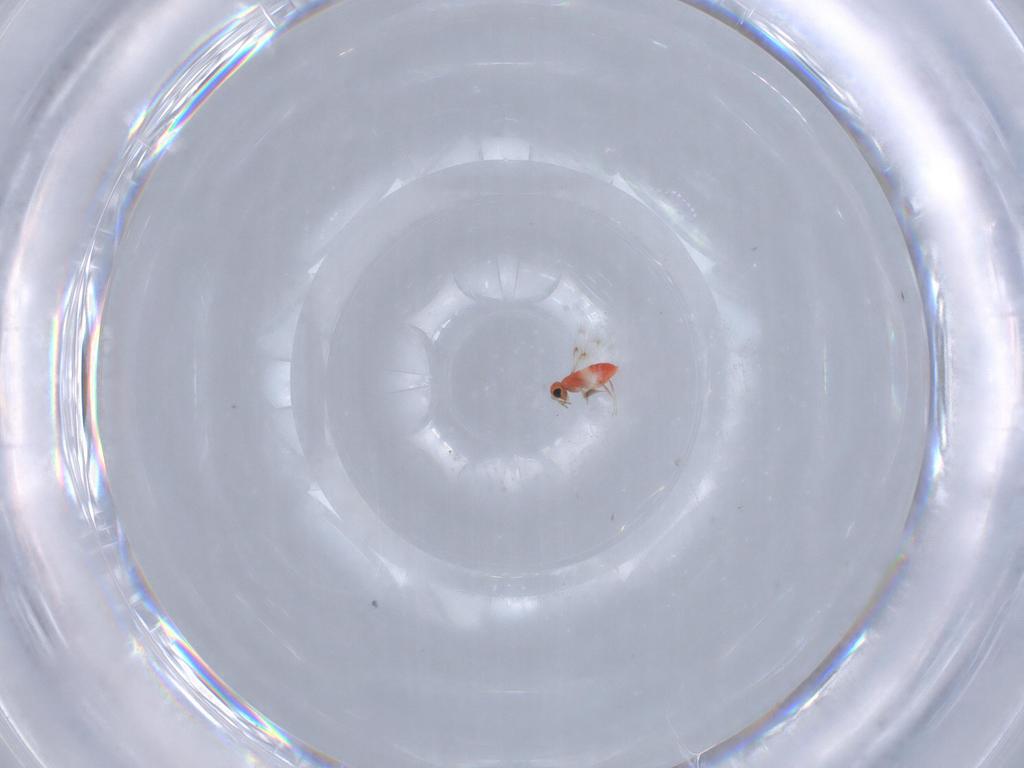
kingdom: Animalia
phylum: Arthropoda
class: Insecta
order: Hymenoptera
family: Trichogrammatidae
